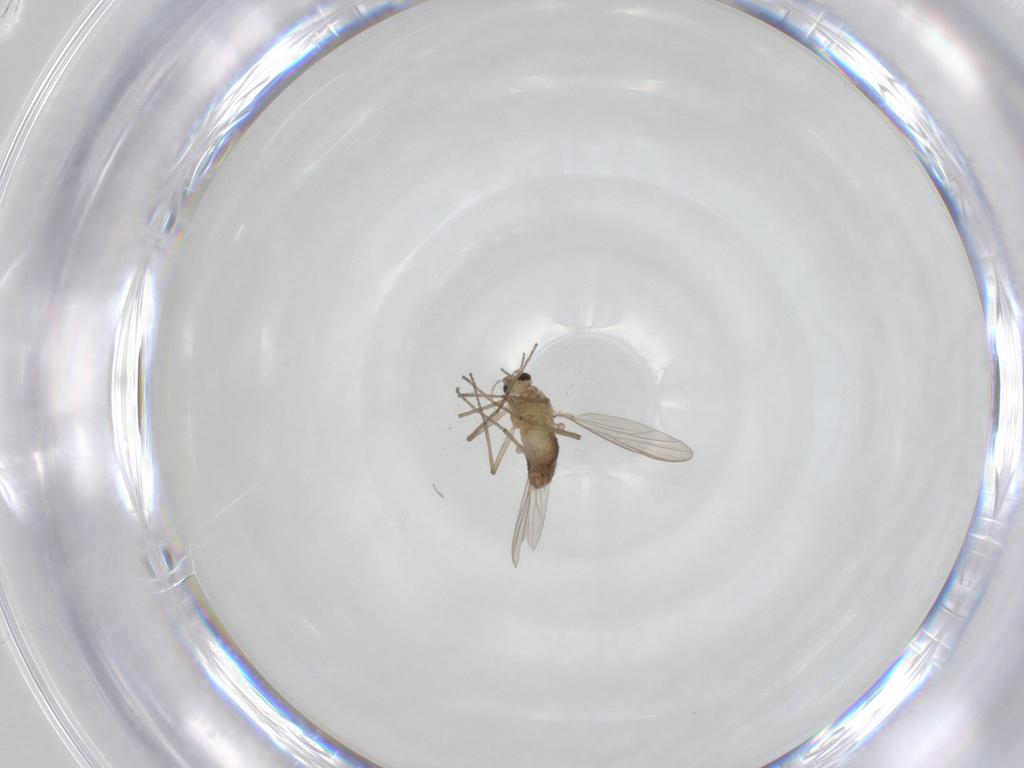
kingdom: Animalia
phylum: Arthropoda
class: Insecta
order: Diptera
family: Chironomidae
